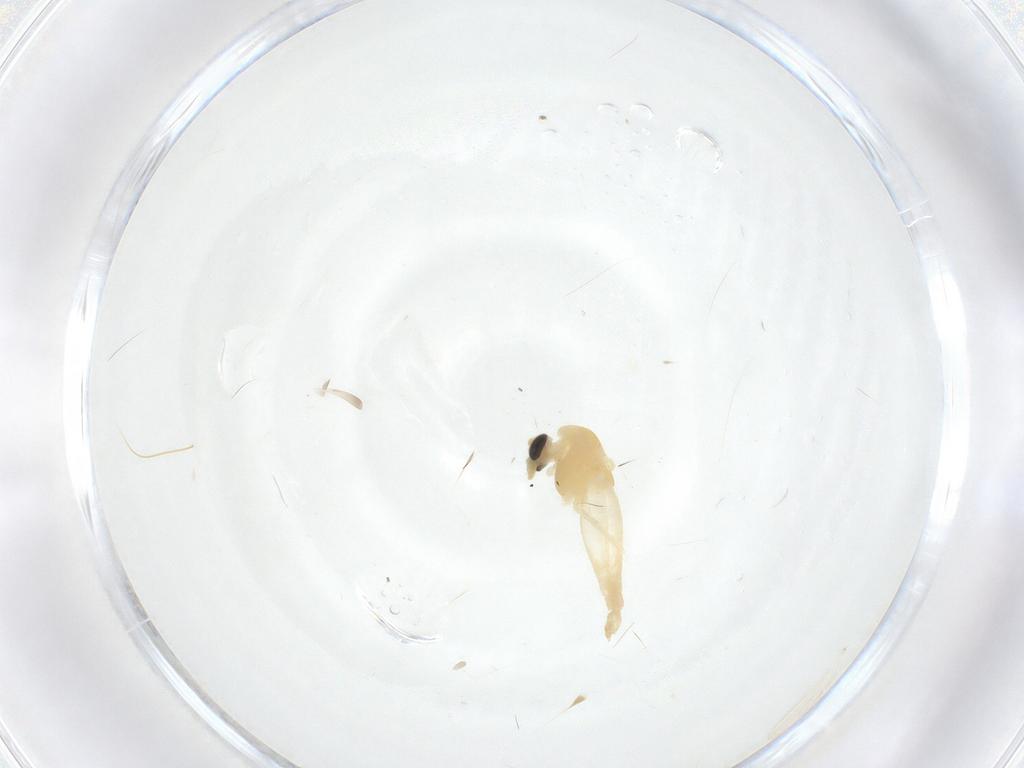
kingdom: Animalia
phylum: Arthropoda
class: Insecta
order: Diptera
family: Chironomidae
